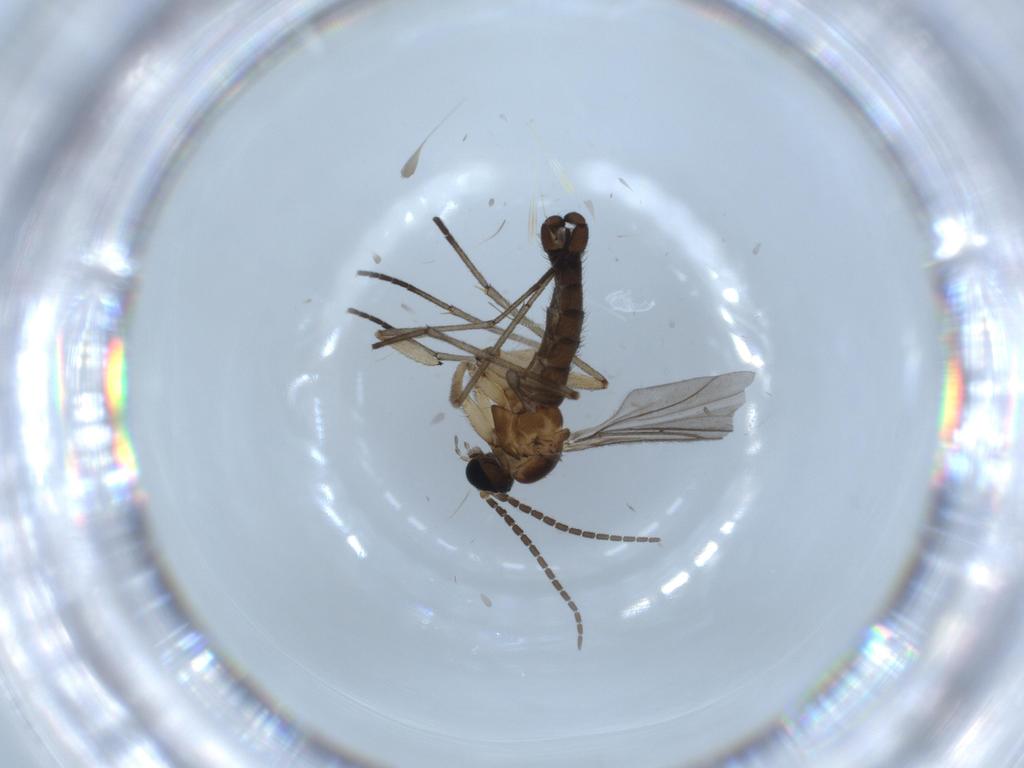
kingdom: Animalia
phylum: Arthropoda
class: Insecta
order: Diptera
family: Sciaridae
